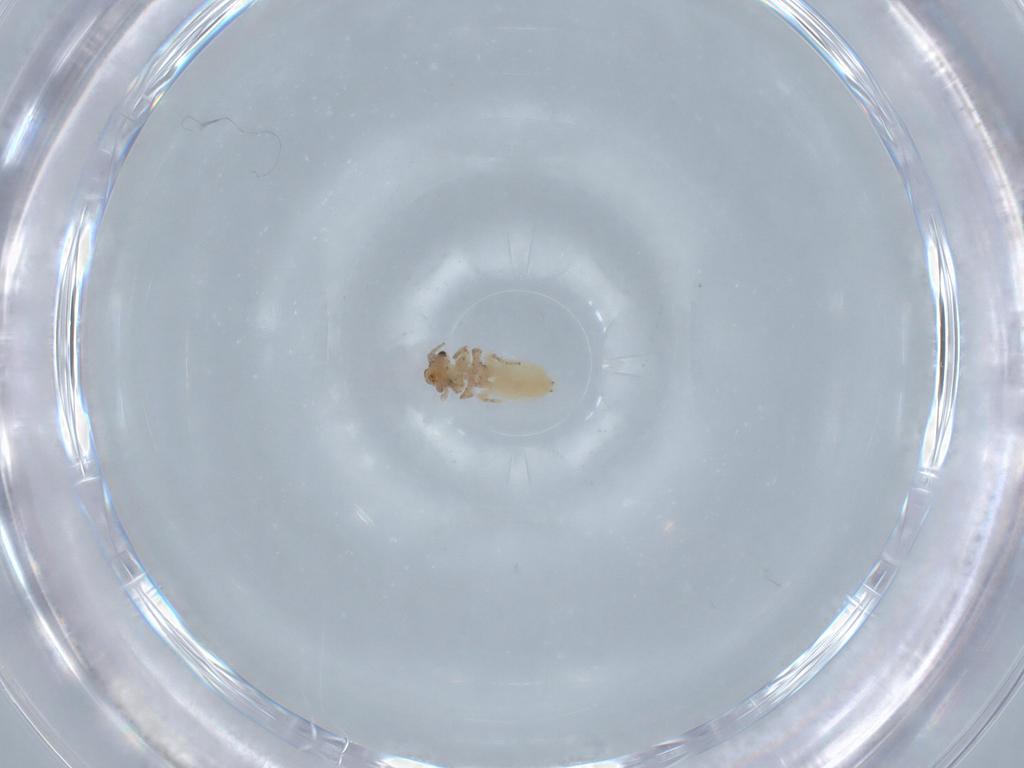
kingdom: Animalia
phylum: Arthropoda
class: Insecta
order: Psocodea
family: Lepidopsocidae
